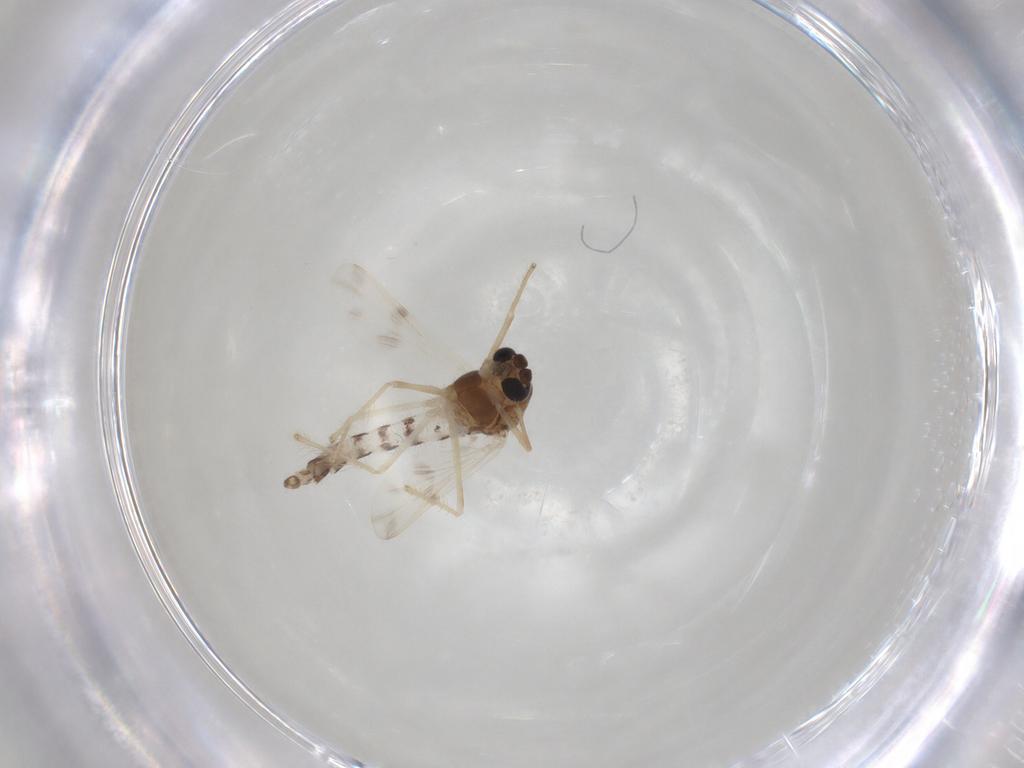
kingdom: Animalia
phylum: Arthropoda
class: Insecta
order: Diptera
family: Chironomidae
